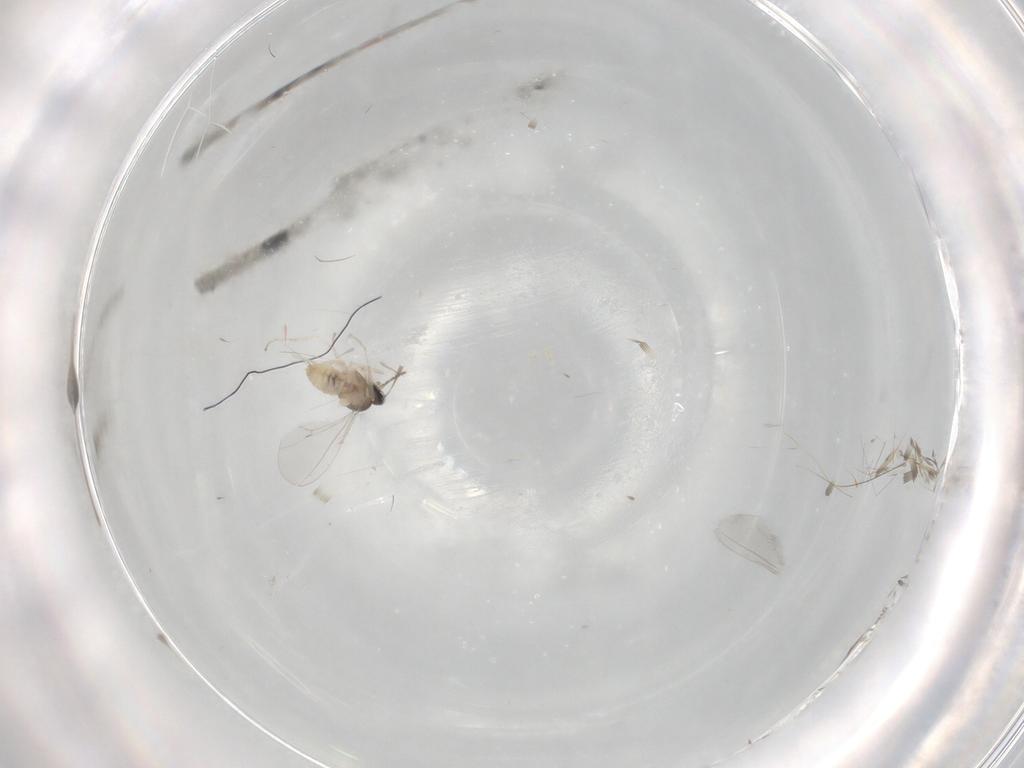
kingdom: Animalia
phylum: Arthropoda
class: Insecta
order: Diptera
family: Cecidomyiidae
